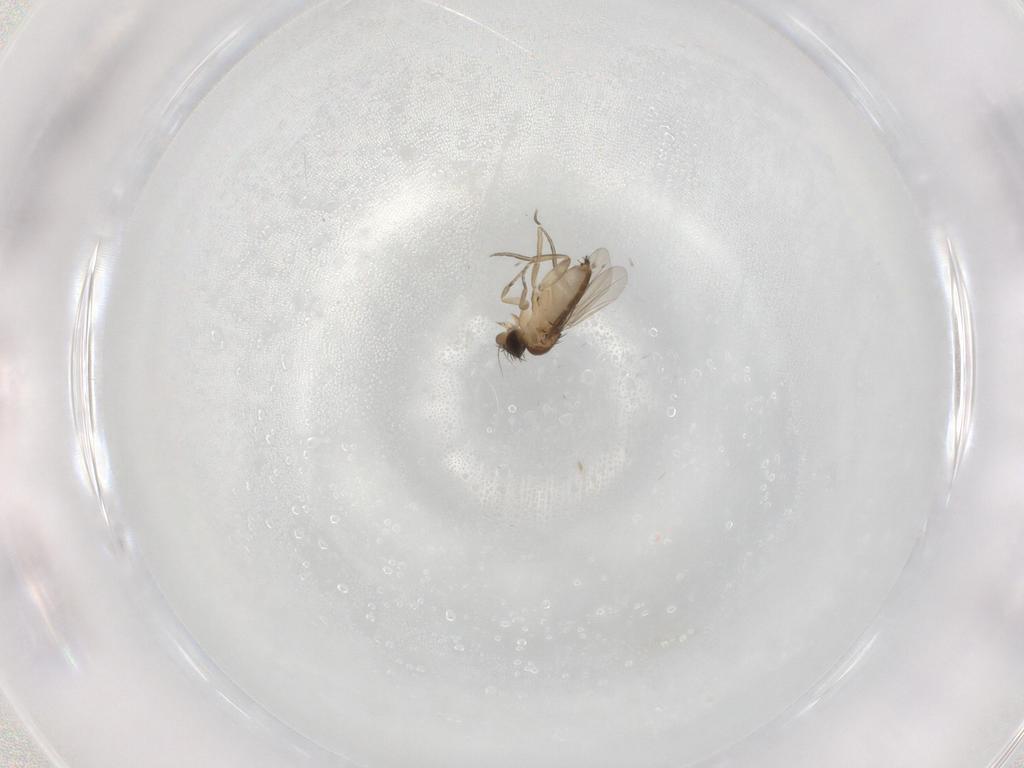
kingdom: Animalia
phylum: Arthropoda
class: Insecta
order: Diptera
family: Phoridae
